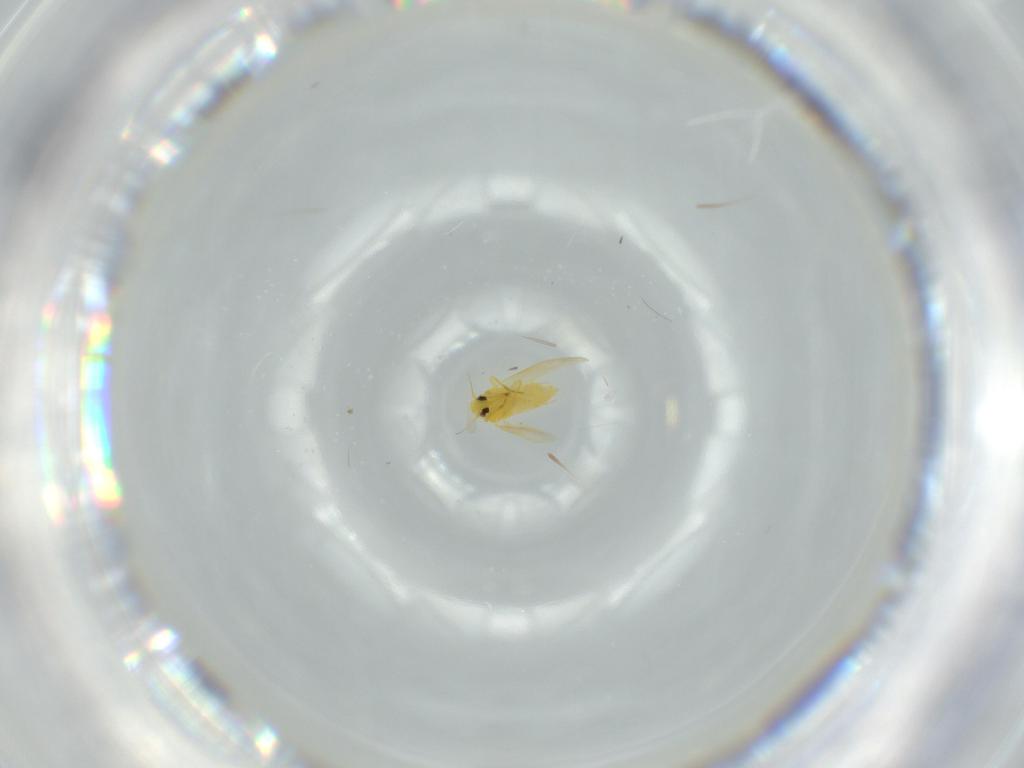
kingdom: Animalia
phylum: Arthropoda
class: Insecta
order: Hemiptera
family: Aleyrodidae
